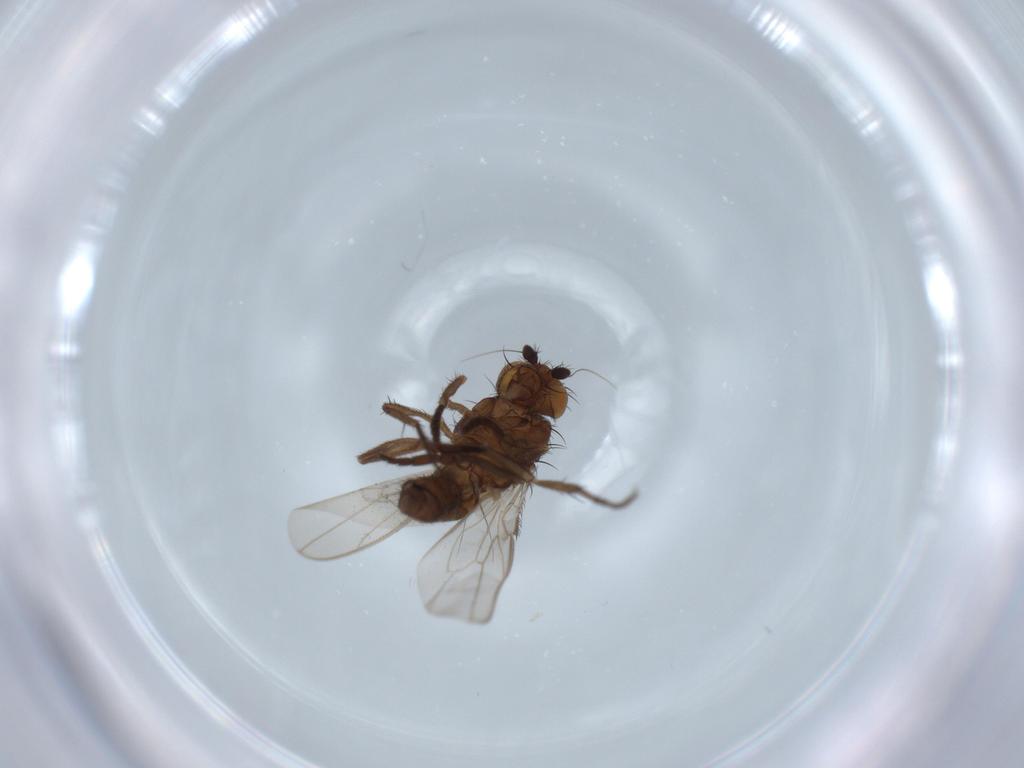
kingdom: Animalia
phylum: Arthropoda
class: Insecta
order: Diptera
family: Sphaeroceridae
